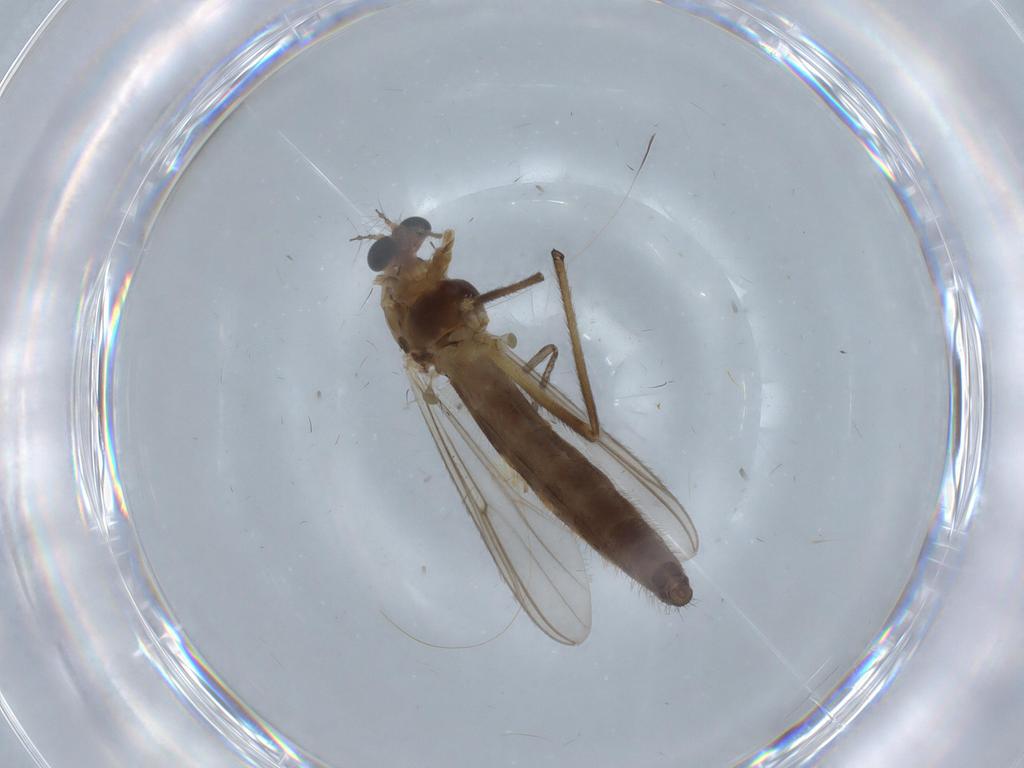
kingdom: Animalia
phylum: Arthropoda
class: Insecta
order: Diptera
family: Chironomidae
